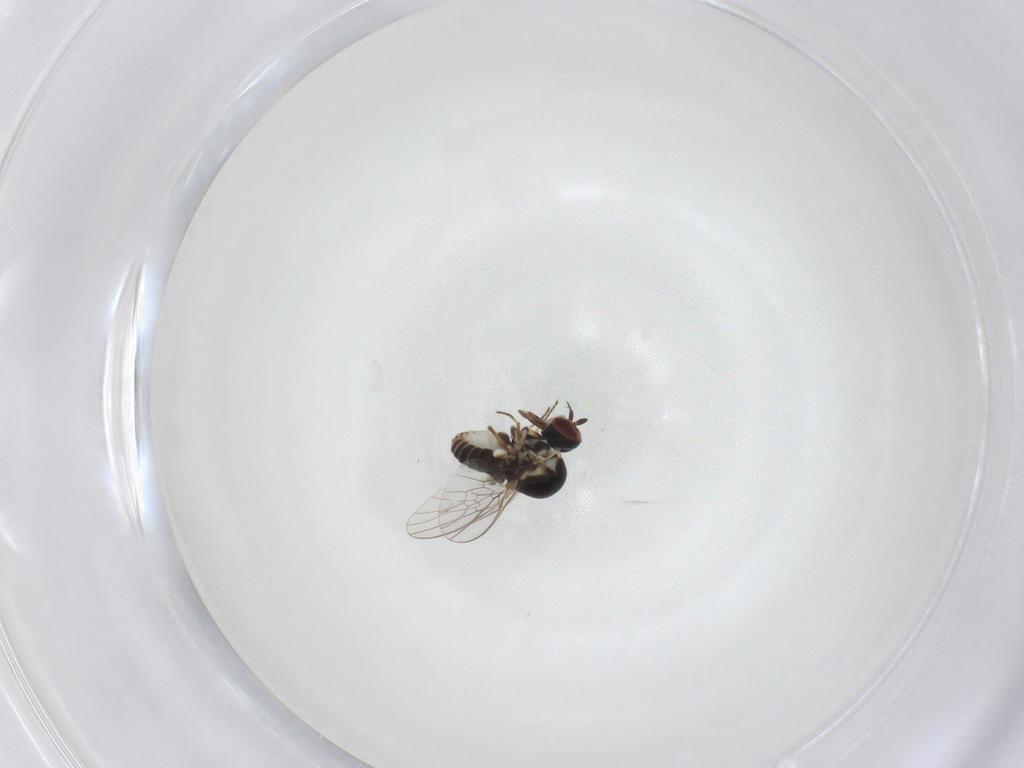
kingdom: Animalia
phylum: Arthropoda
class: Insecta
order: Diptera
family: Mythicomyiidae
